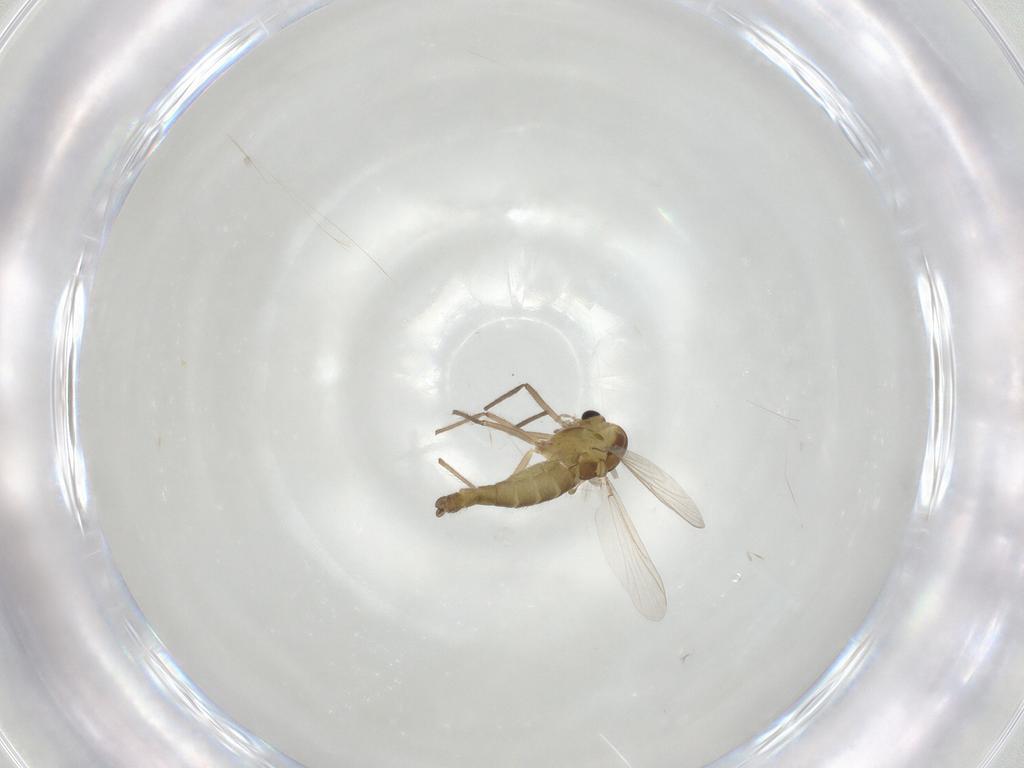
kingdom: Animalia
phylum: Arthropoda
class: Insecta
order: Diptera
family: Chironomidae
